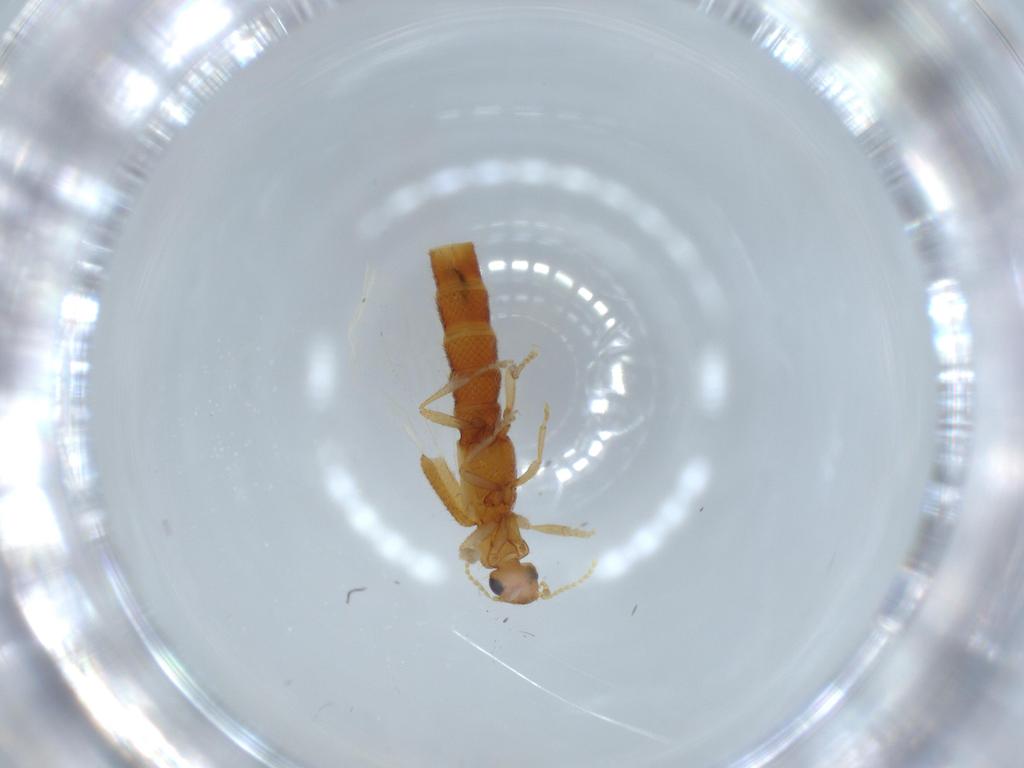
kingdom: Animalia
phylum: Arthropoda
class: Insecta
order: Coleoptera
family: Staphylinidae
